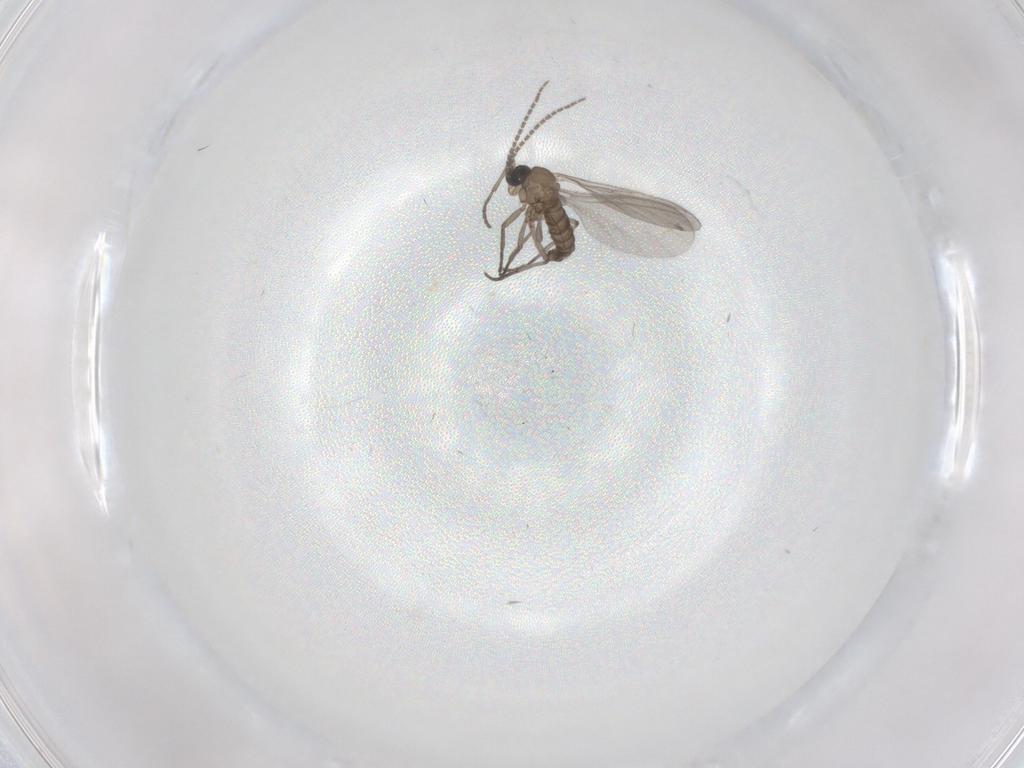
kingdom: Animalia
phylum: Arthropoda
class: Insecta
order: Diptera
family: Sciaridae
